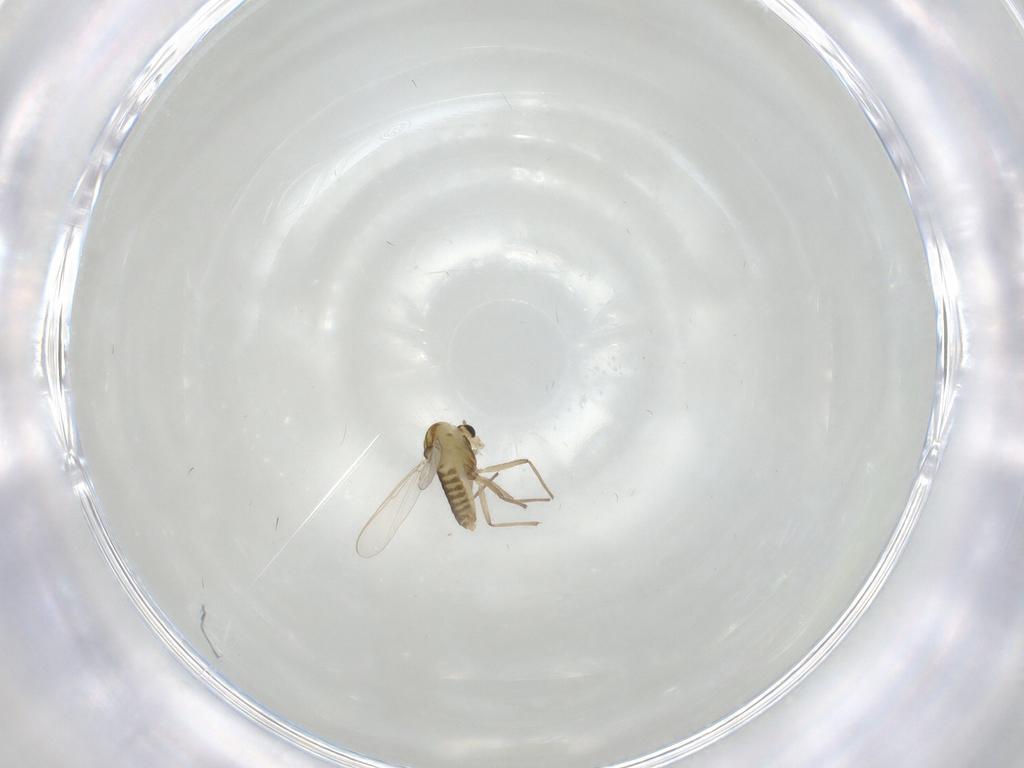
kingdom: Animalia
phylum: Arthropoda
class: Insecta
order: Diptera
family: Chironomidae
